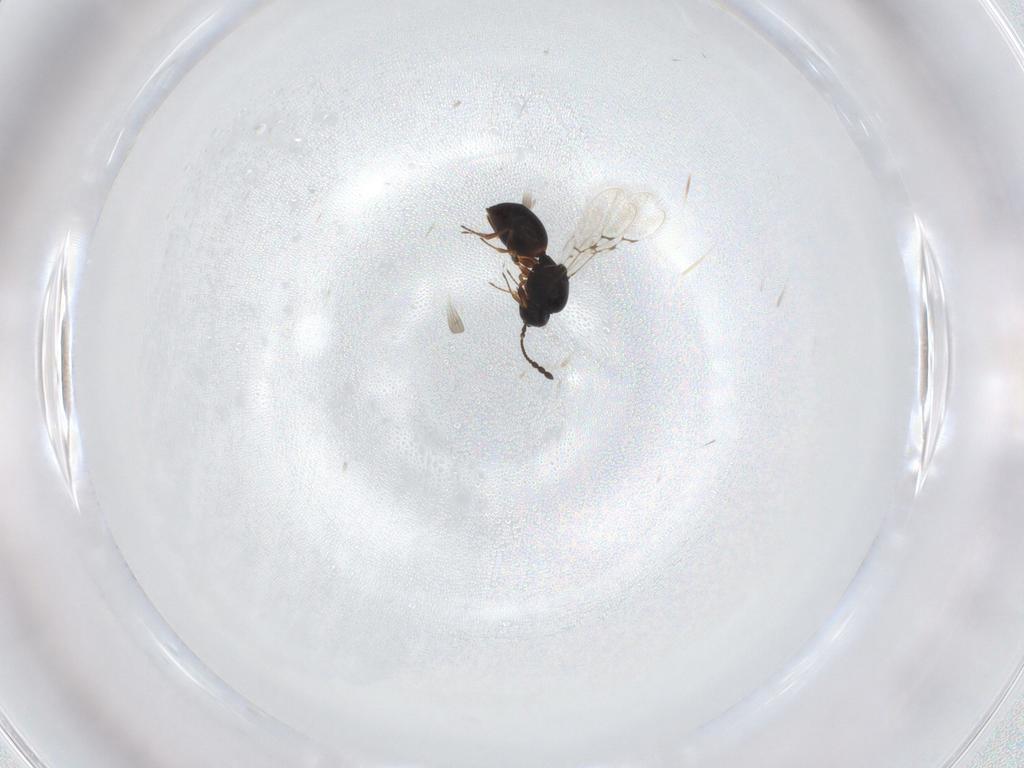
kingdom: Animalia
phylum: Arthropoda
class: Insecta
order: Hymenoptera
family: Figitidae
